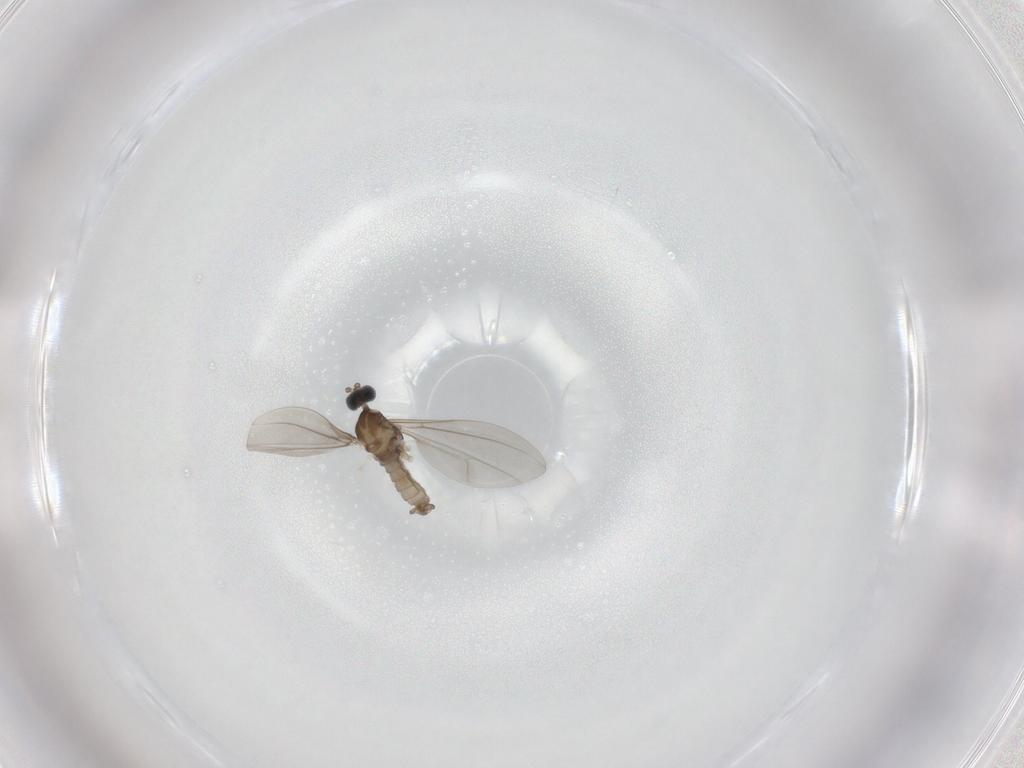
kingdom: Animalia
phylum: Arthropoda
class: Insecta
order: Diptera
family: Cecidomyiidae
